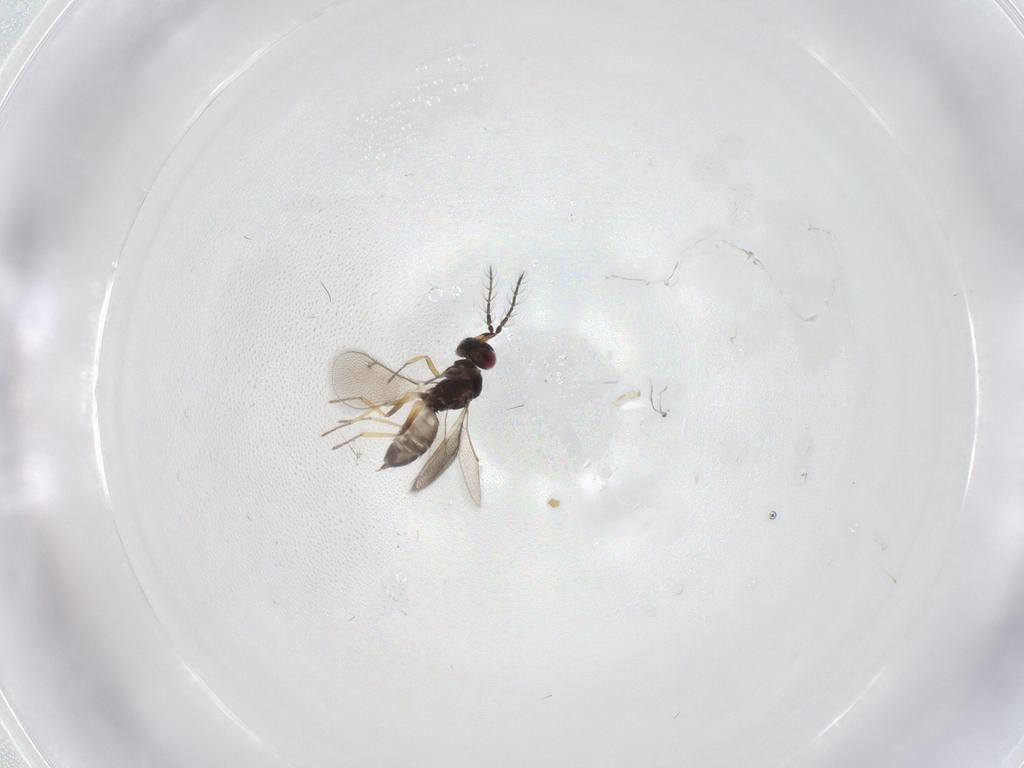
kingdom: Animalia
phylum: Arthropoda
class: Insecta
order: Hymenoptera
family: Eulophidae
